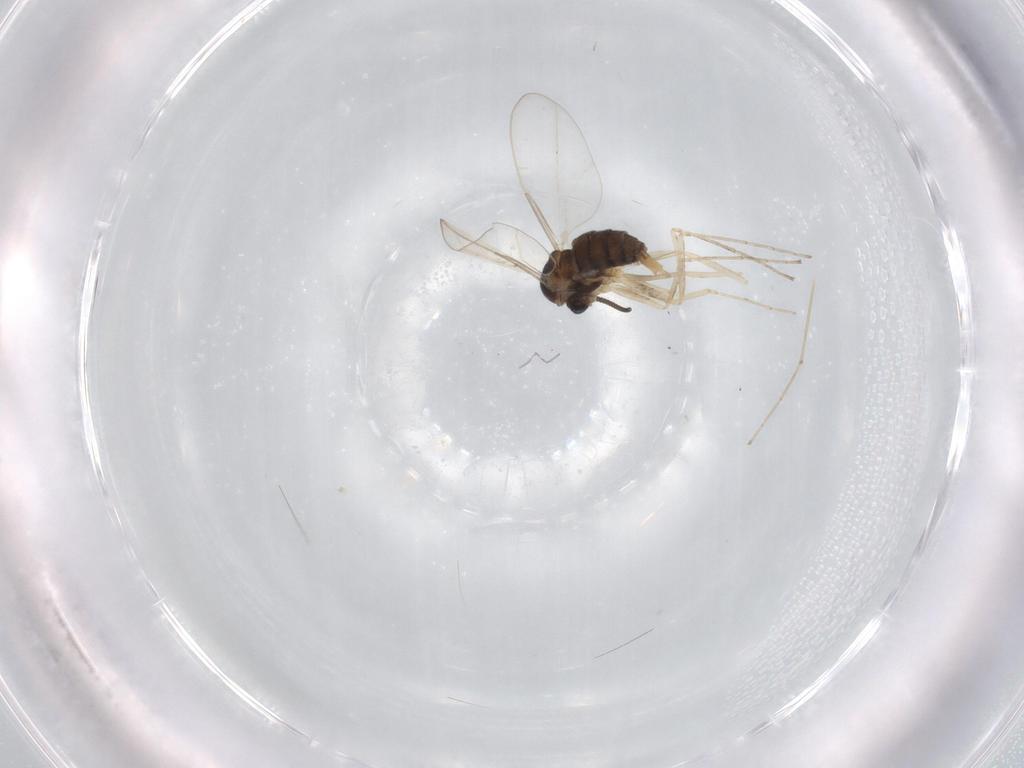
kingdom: Animalia
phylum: Arthropoda
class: Insecta
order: Diptera
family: Cecidomyiidae
